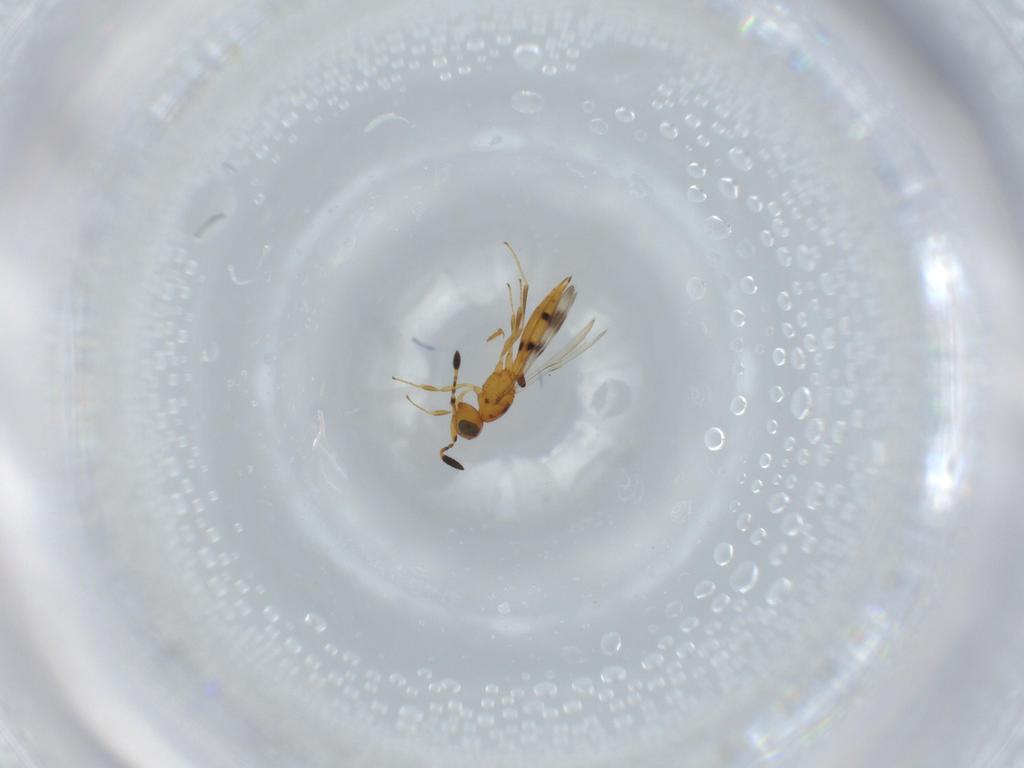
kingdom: Animalia
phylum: Arthropoda
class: Insecta
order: Hymenoptera
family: Scelionidae
